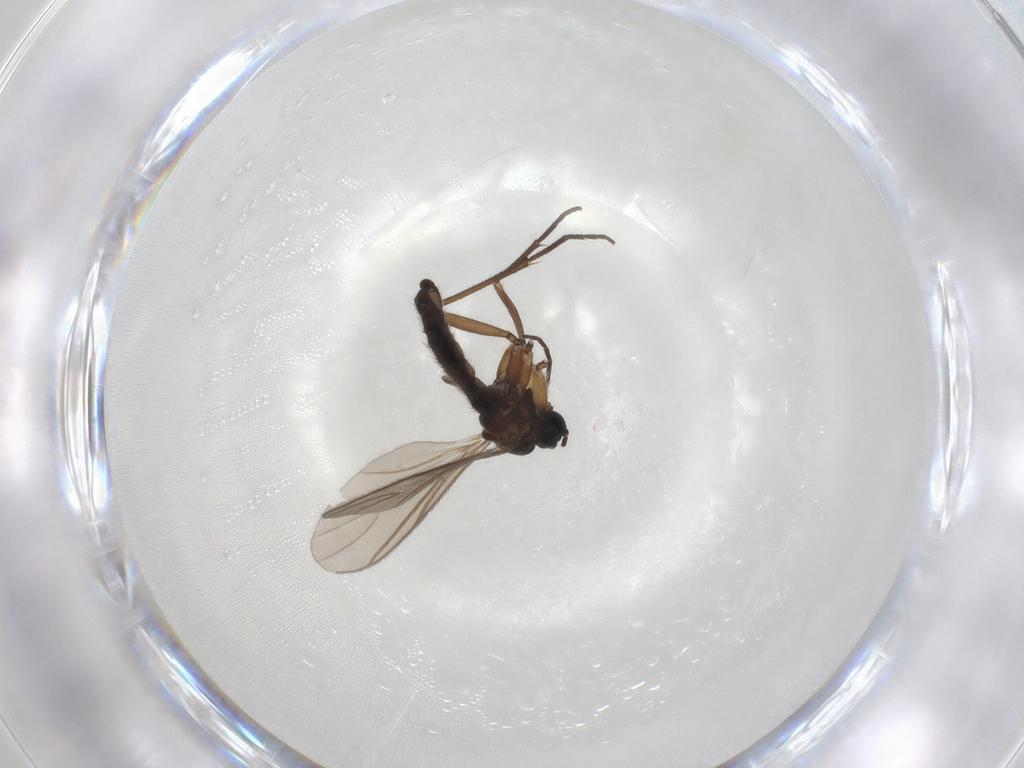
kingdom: Animalia
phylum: Arthropoda
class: Insecta
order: Diptera
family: Sciaridae
